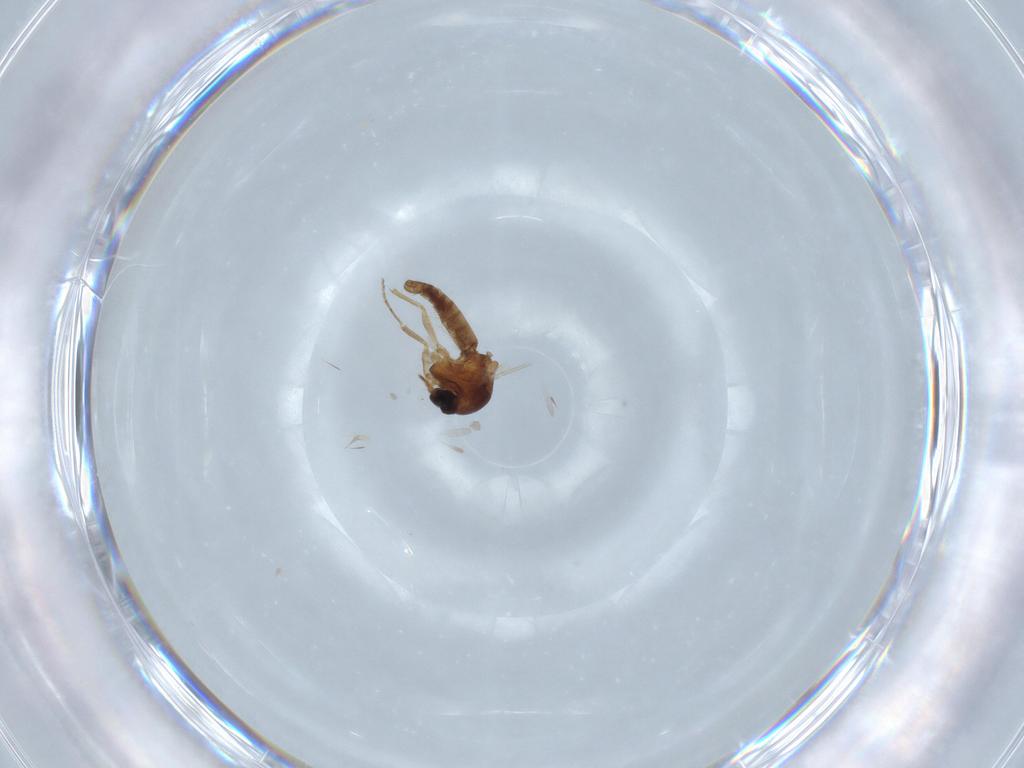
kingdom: Animalia
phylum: Arthropoda
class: Insecta
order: Diptera
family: Ceratopogonidae
